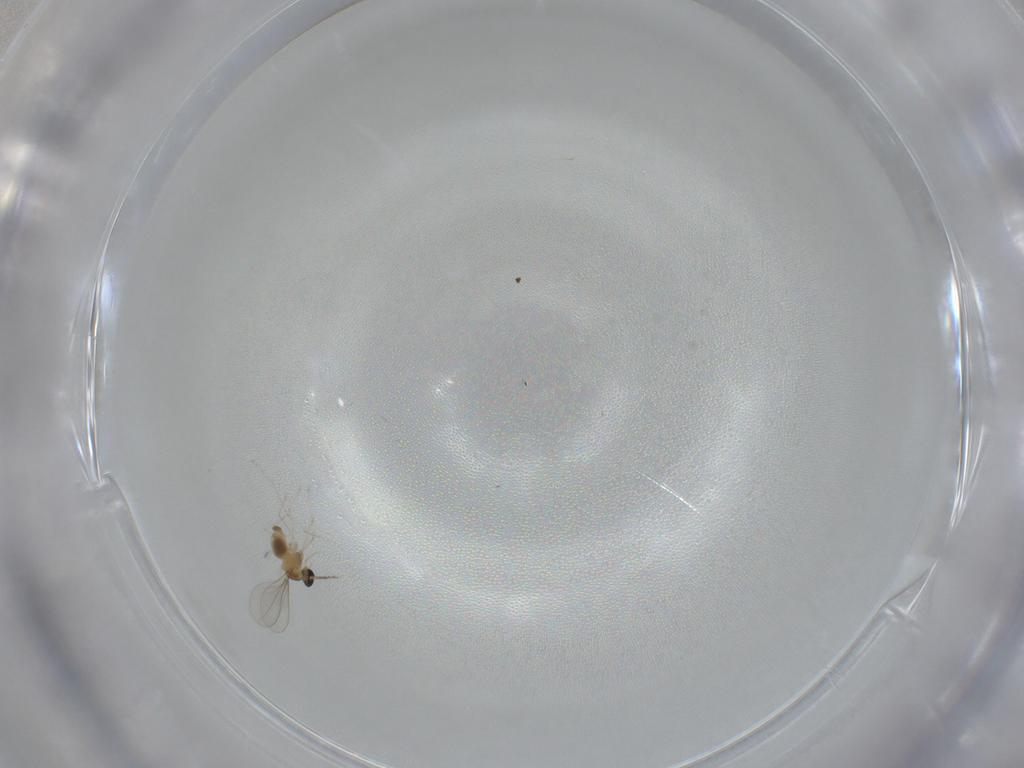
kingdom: Animalia
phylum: Arthropoda
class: Insecta
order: Diptera
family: Cecidomyiidae
